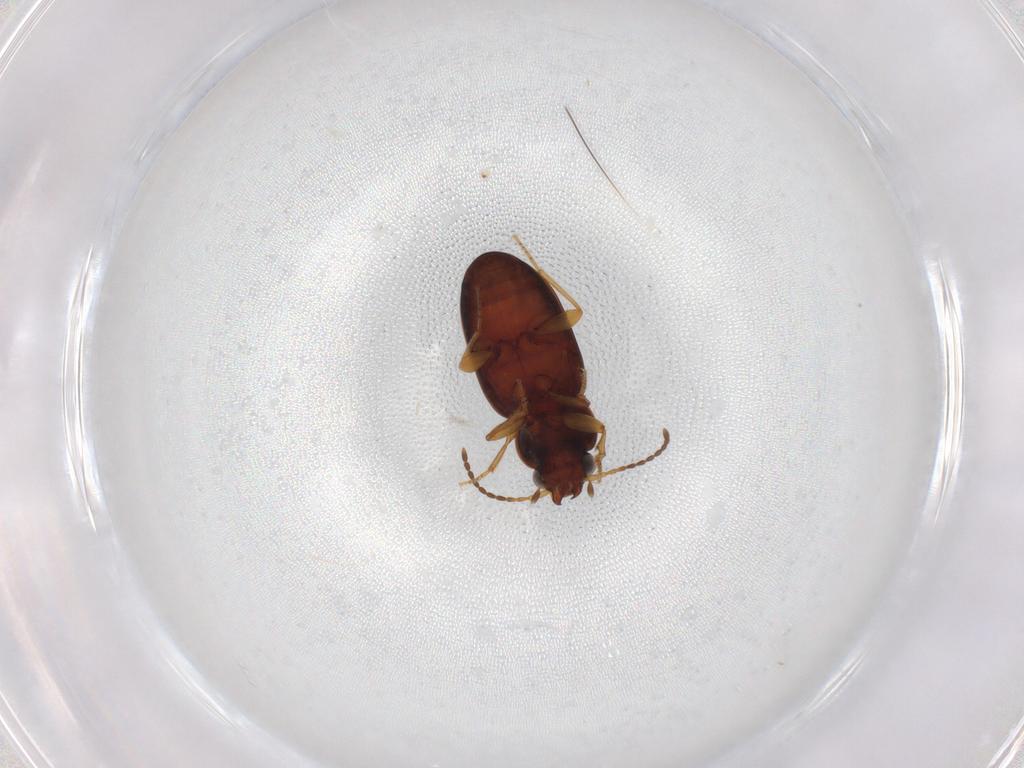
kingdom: Animalia
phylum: Arthropoda
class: Insecta
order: Coleoptera
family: Carabidae
